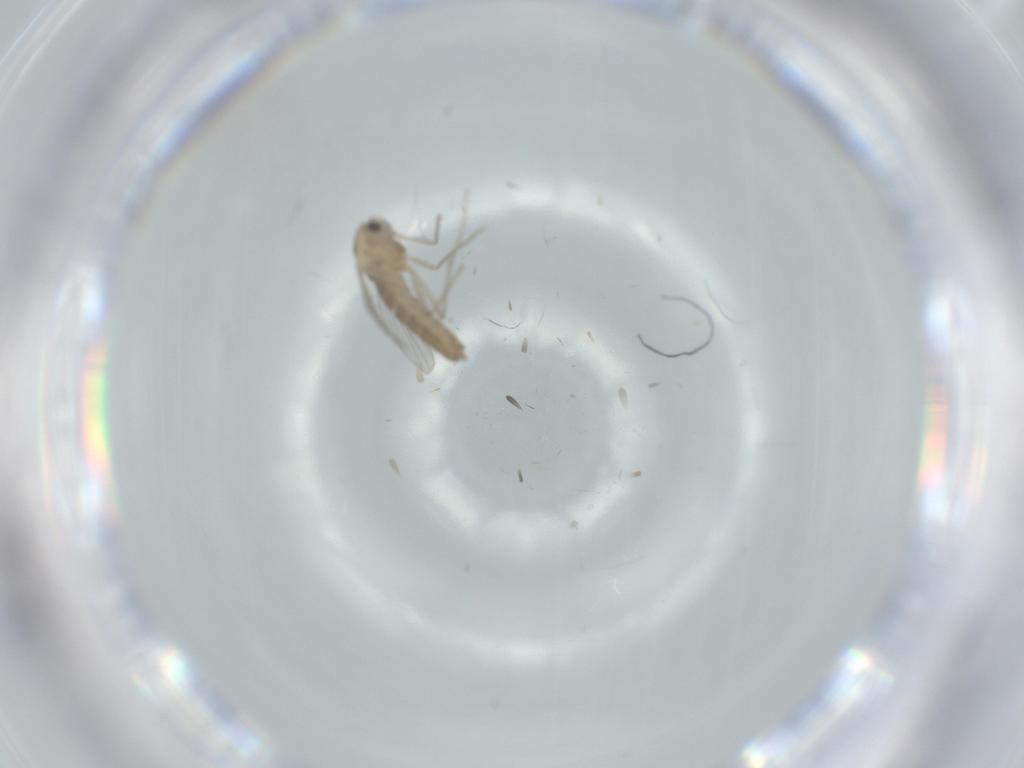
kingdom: Animalia
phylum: Arthropoda
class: Insecta
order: Diptera
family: Chironomidae
